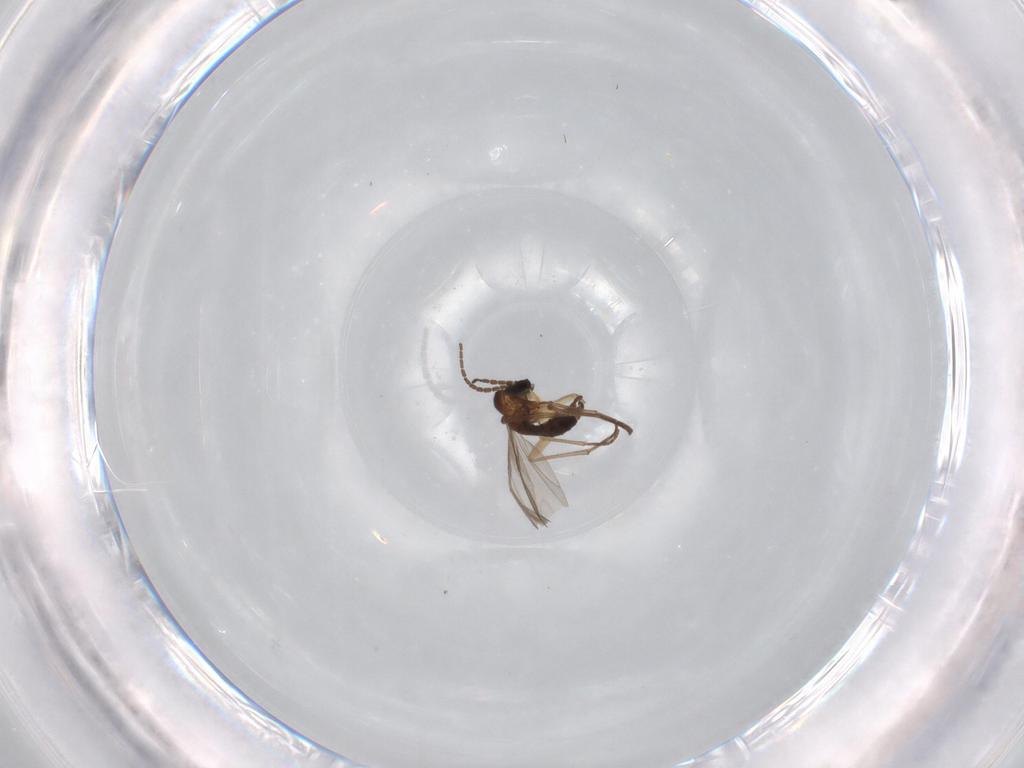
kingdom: Animalia
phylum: Arthropoda
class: Insecta
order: Diptera
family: Sciaridae
